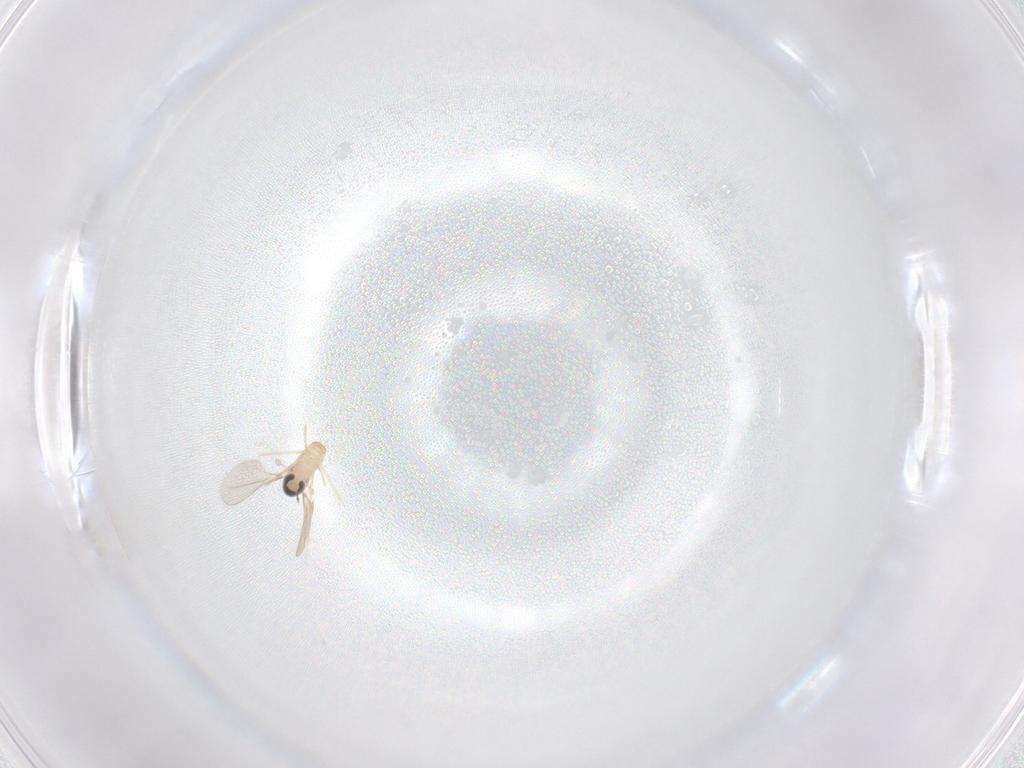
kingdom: Animalia
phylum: Arthropoda
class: Insecta
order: Diptera
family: Cecidomyiidae
